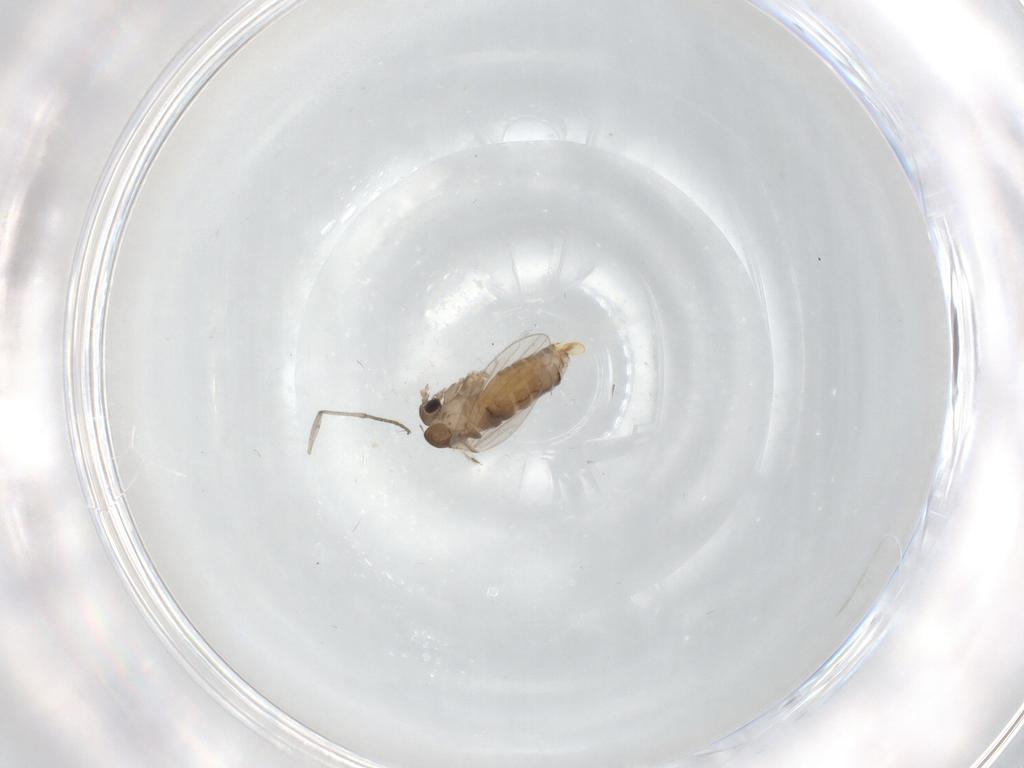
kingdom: Animalia
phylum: Arthropoda
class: Insecta
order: Diptera
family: Sciaridae
